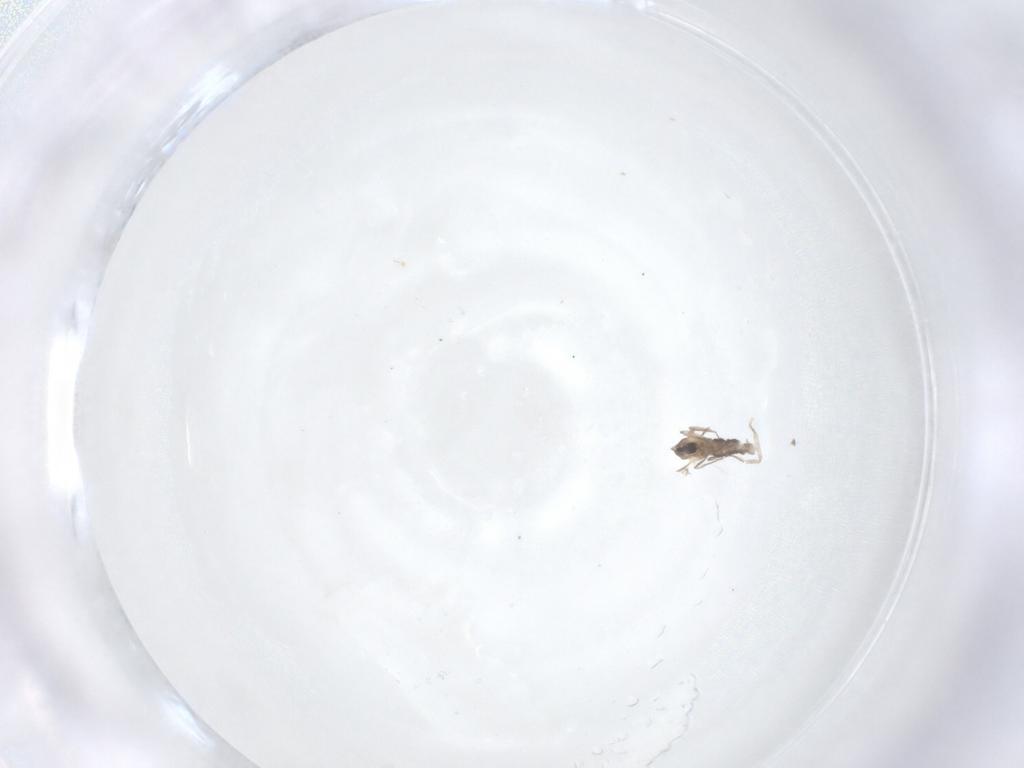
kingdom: Animalia
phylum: Arthropoda
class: Insecta
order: Diptera
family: Cecidomyiidae
